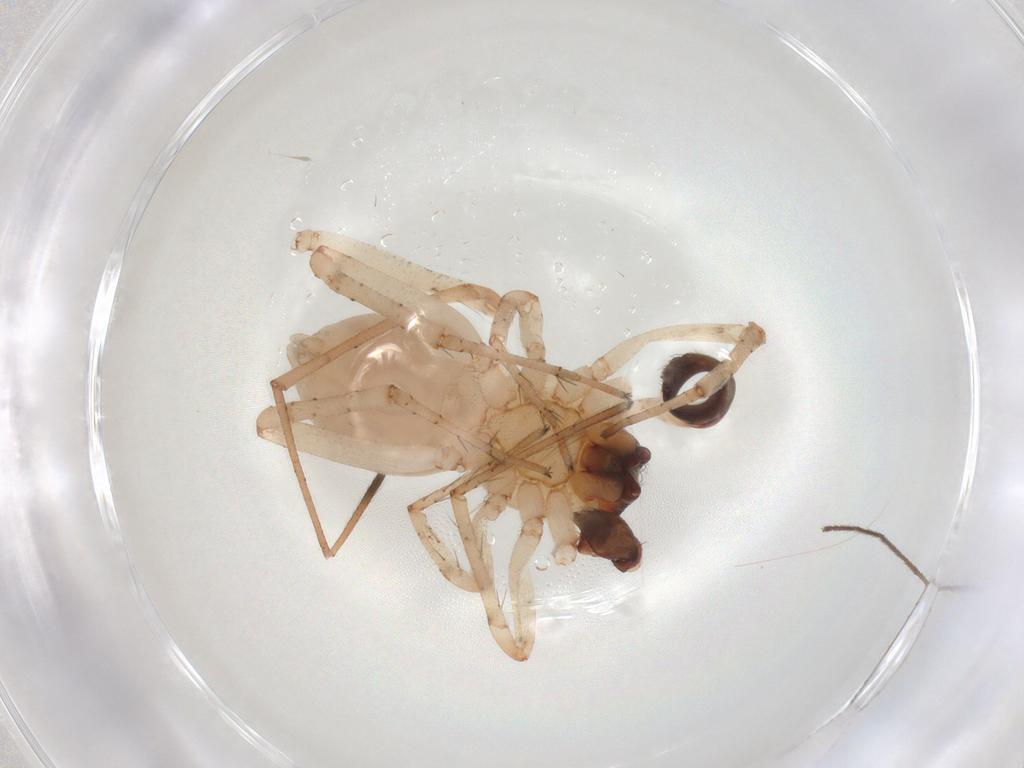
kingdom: Animalia
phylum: Arthropoda
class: Arachnida
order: Araneae
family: Anyphaenidae
